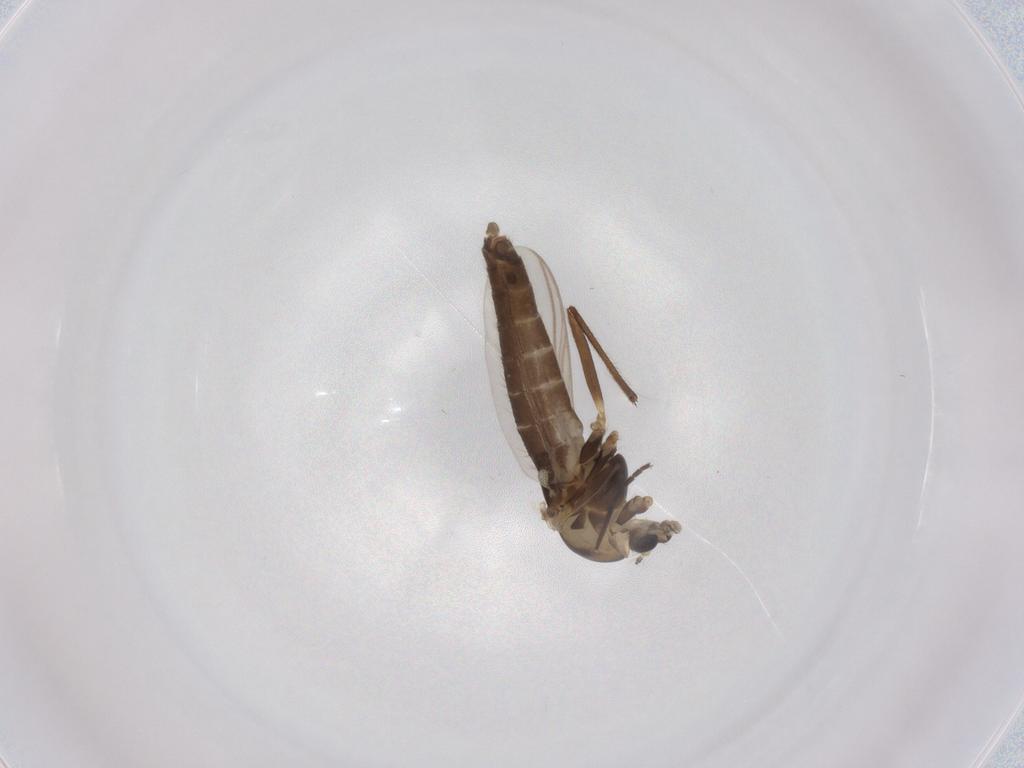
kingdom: Animalia
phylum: Arthropoda
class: Insecta
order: Diptera
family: Chironomidae
